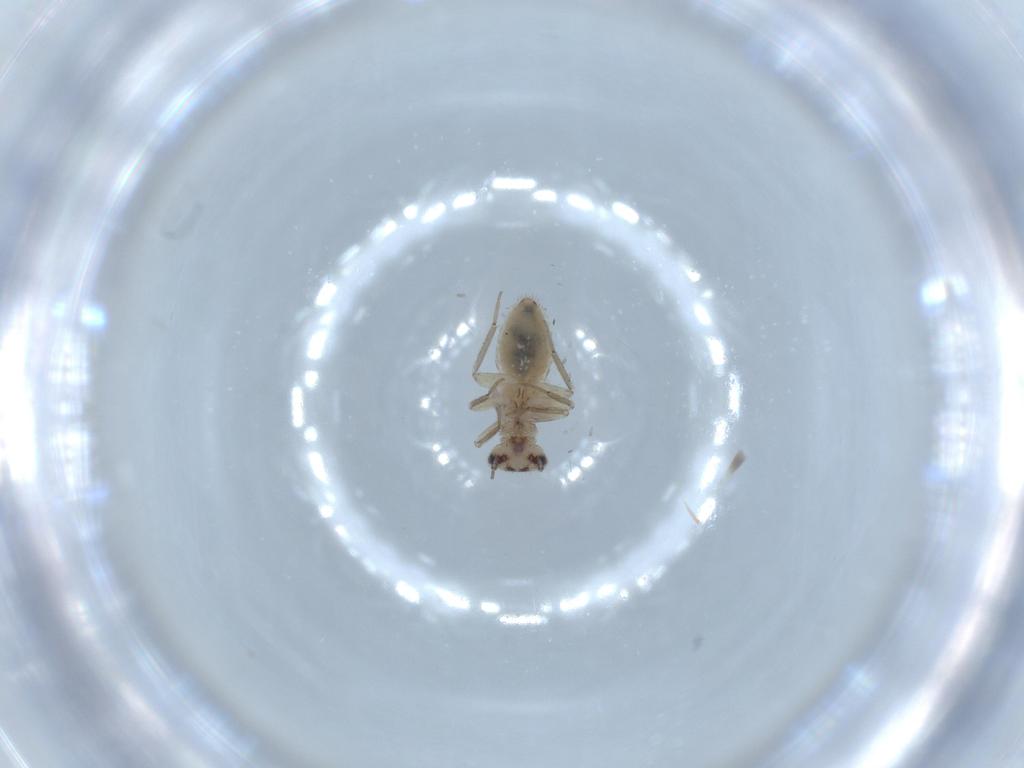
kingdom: Animalia
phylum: Arthropoda
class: Insecta
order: Psocodea
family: Lepidopsocidae
